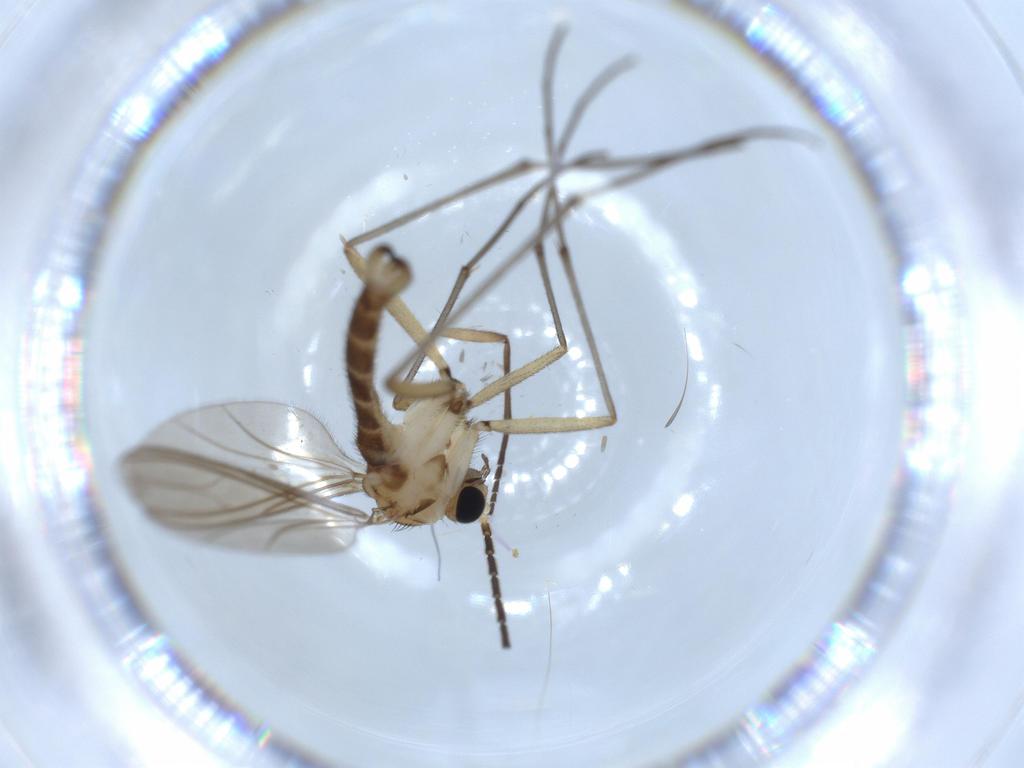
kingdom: Animalia
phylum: Arthropoda
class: Insecta
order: Diptera
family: Sciaridae
